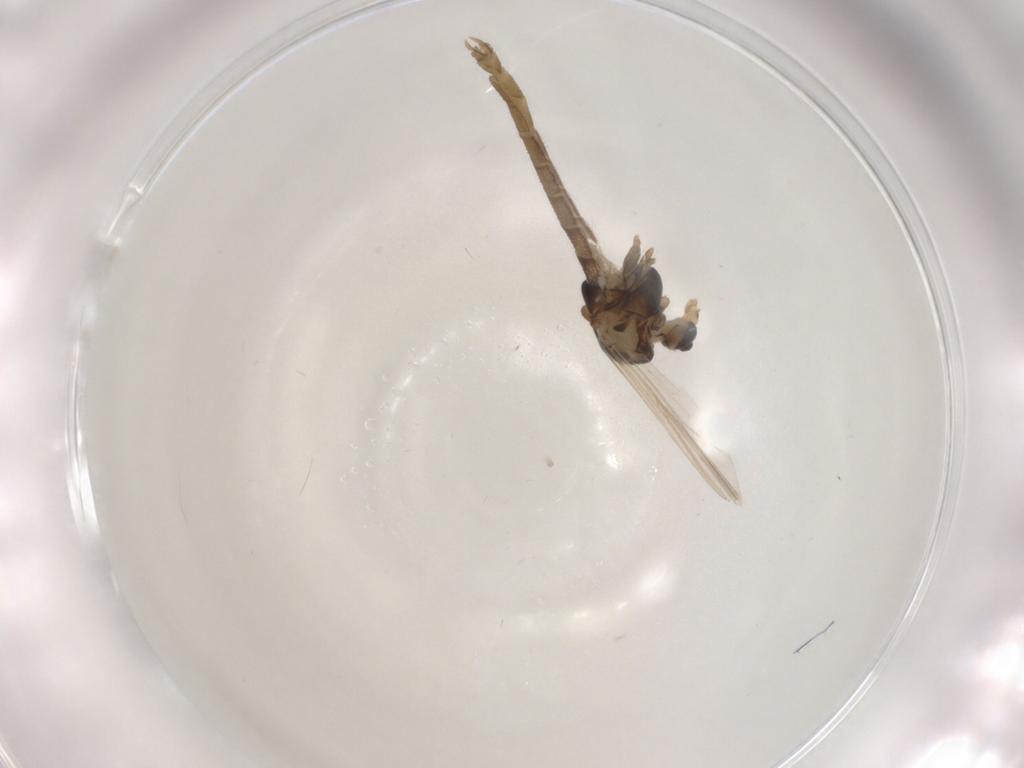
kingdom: Animalia
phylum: Arthropoda
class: Insecta
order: Diptera
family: Chironomidae
